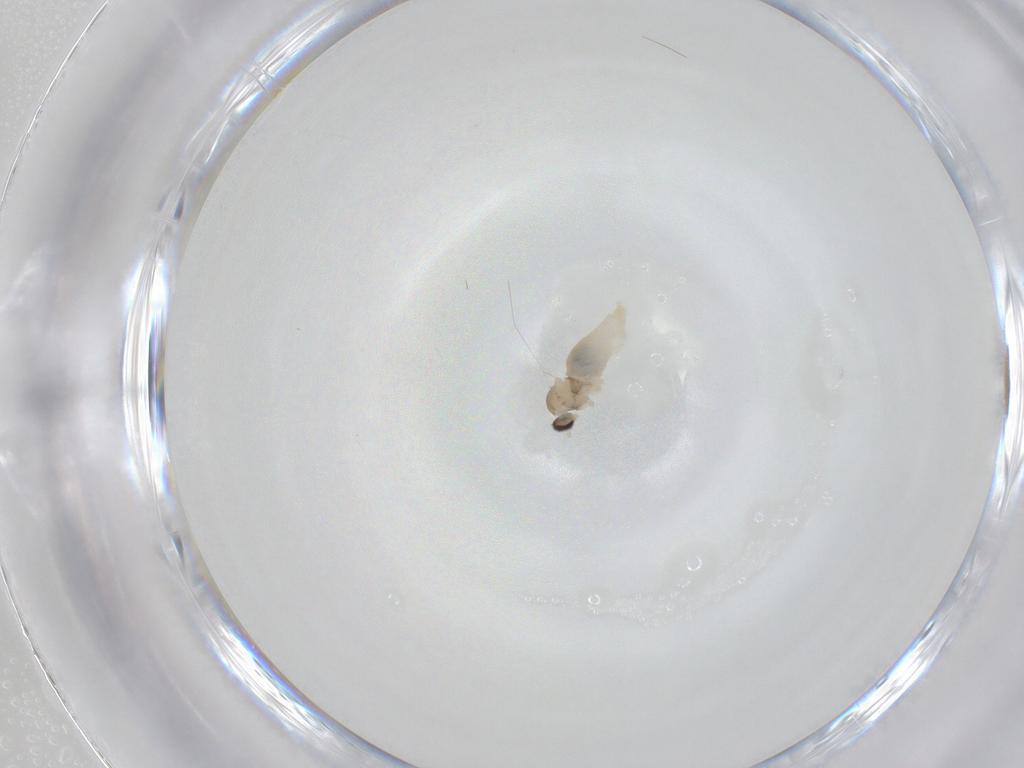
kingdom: Animalia
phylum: Arthropoda
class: Insecta
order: Diptera
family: Cecidomyiidae
